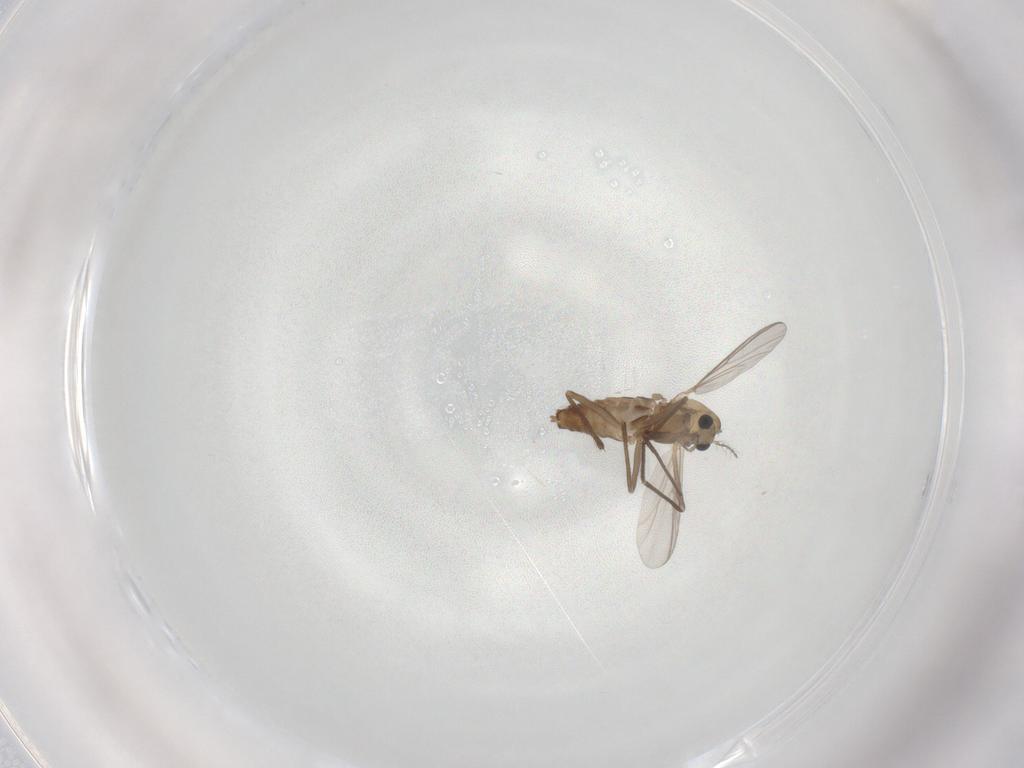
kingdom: Animalia
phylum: Arthropoda
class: Insecta
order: Diptera
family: Chironomidae
